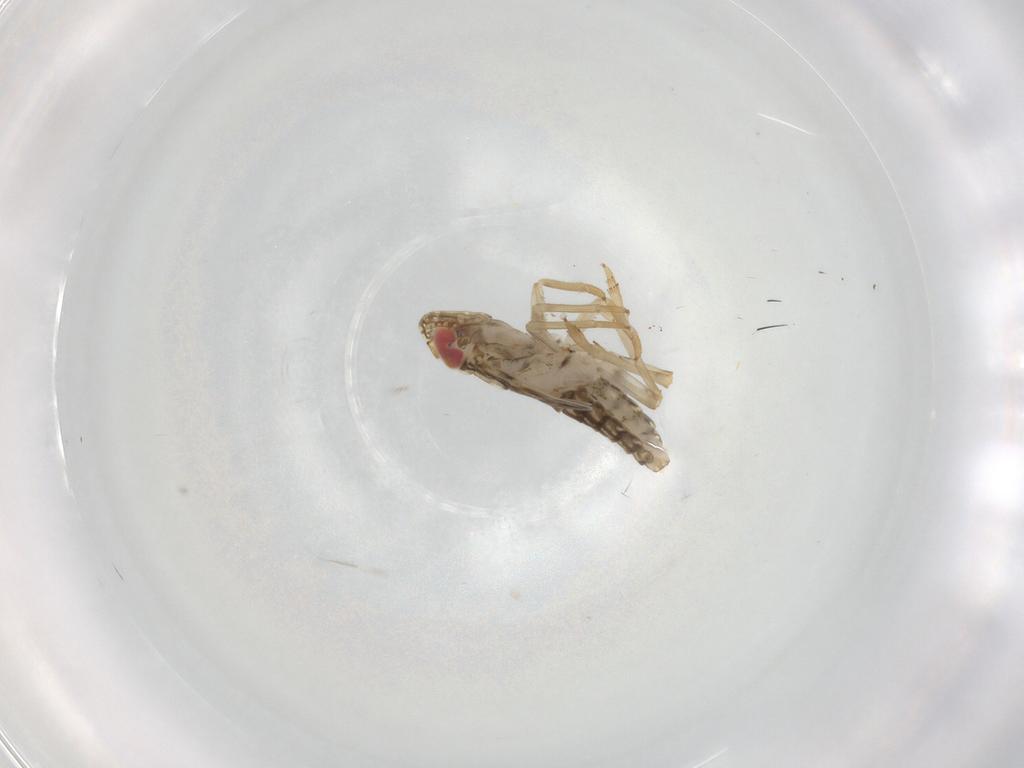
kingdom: Animalia
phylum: Arthropoda
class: Insecta
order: Hemiptera
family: Delphacidae
